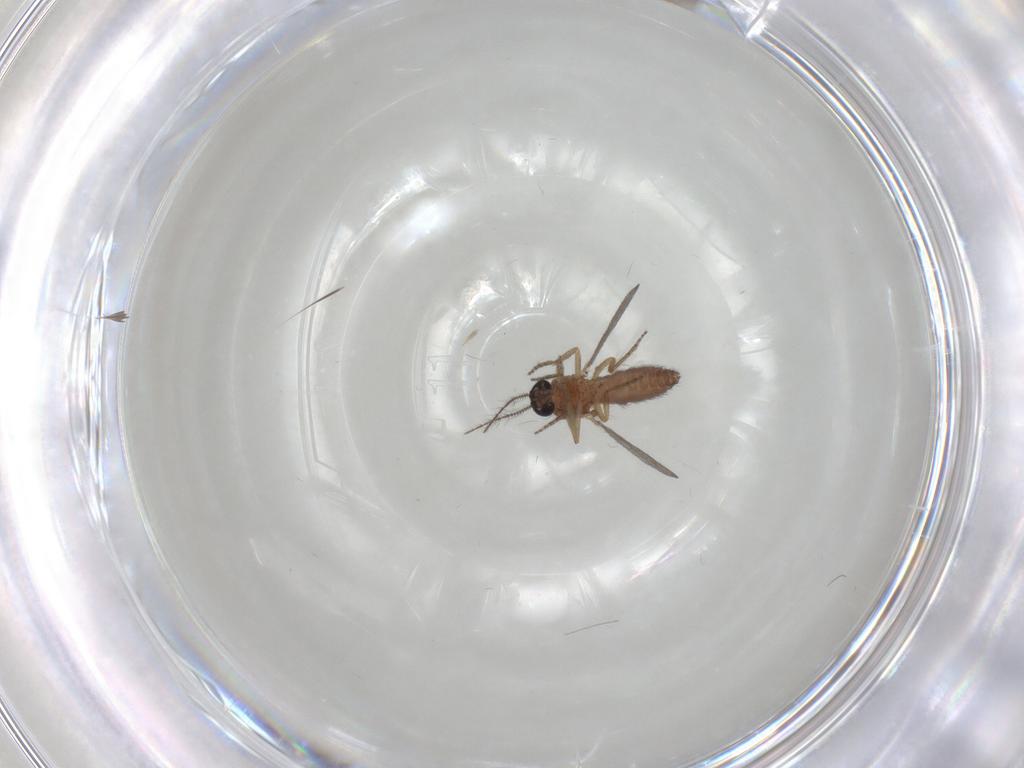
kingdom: Animalia
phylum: Arthropoda
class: Insecta
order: Diptera
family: Ceratopogonidae
